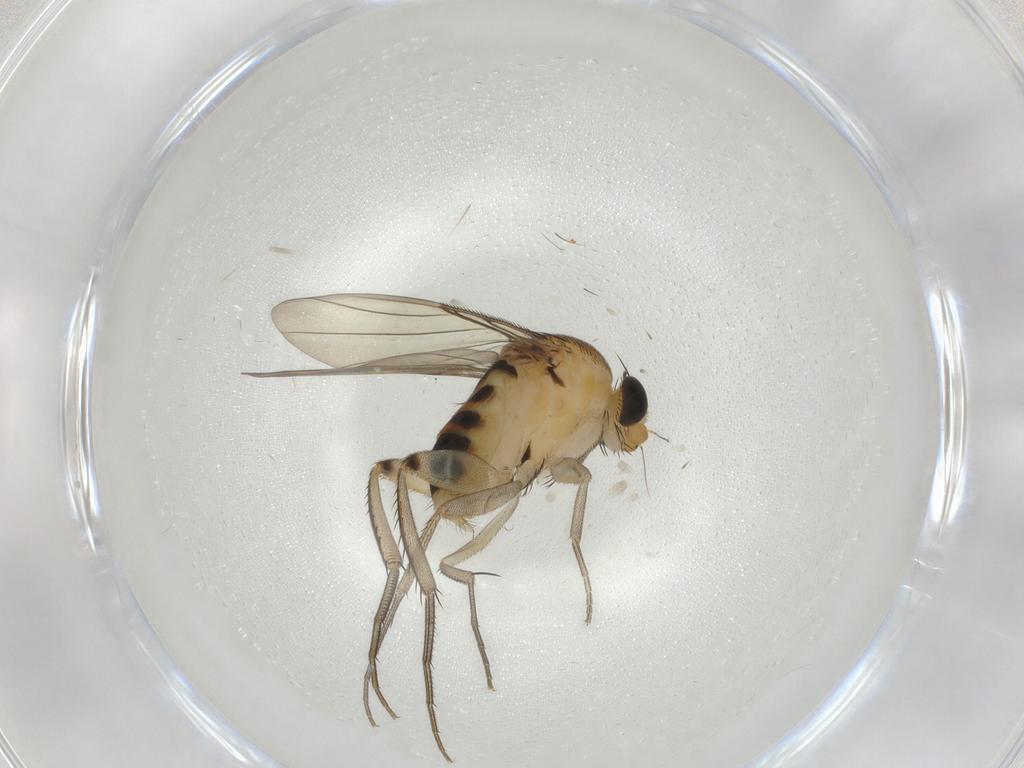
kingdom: Animalia
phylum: Arthropoda
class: Insecta
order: Diptera
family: Phoridae
